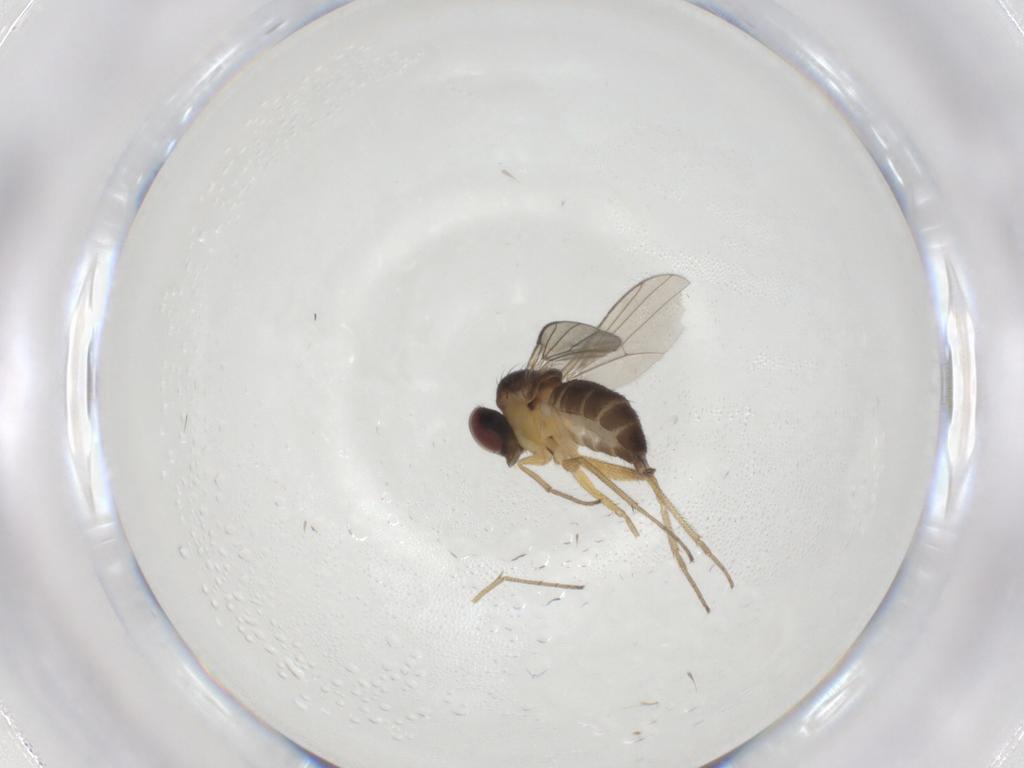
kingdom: Animalia
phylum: Arthropoda
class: Insecta
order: Diptera
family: Dolichopodidae
